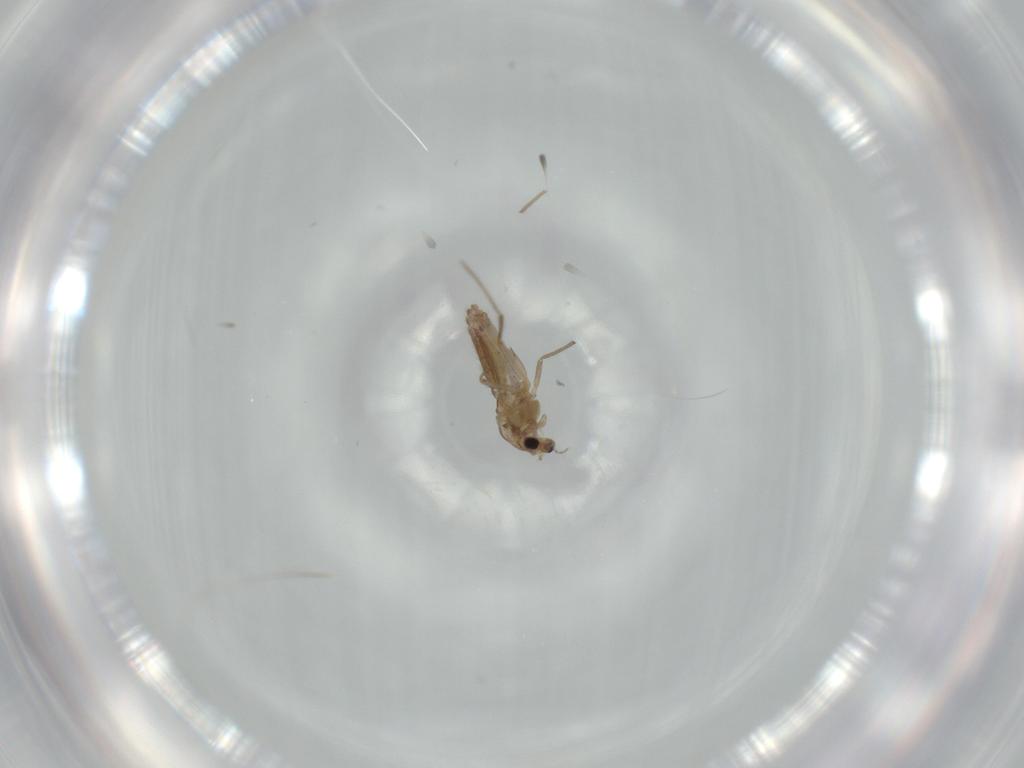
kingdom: Animalia
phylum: Arthropoda
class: Insecta
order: Diptera
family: Chironomidae
